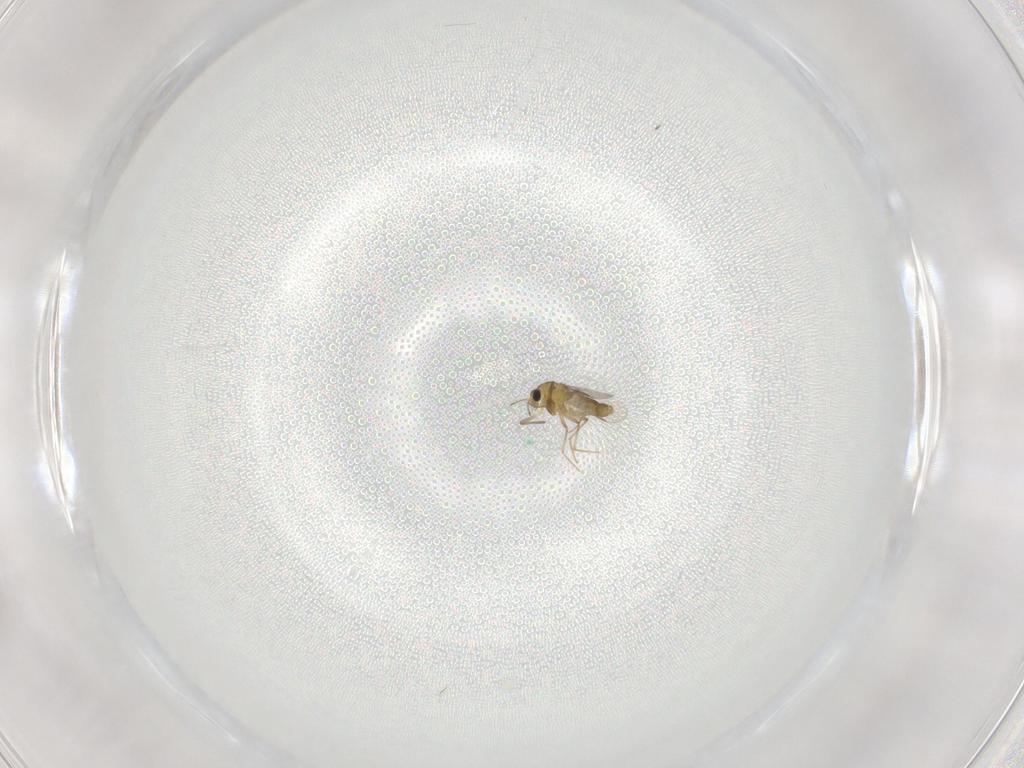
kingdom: Animalia
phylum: Arthropoda
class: Insecta
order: Diptera
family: Chironomidae
